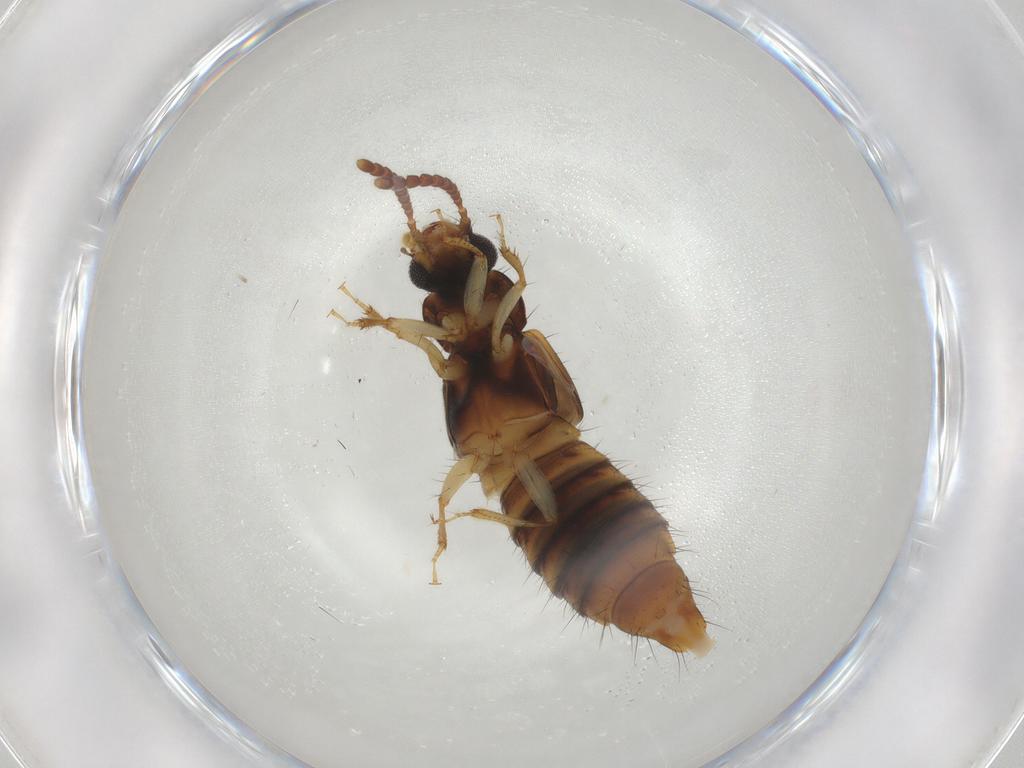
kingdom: Animalia
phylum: Arthropoda
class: Insecta
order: Coleoptera
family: Staphylinidae
